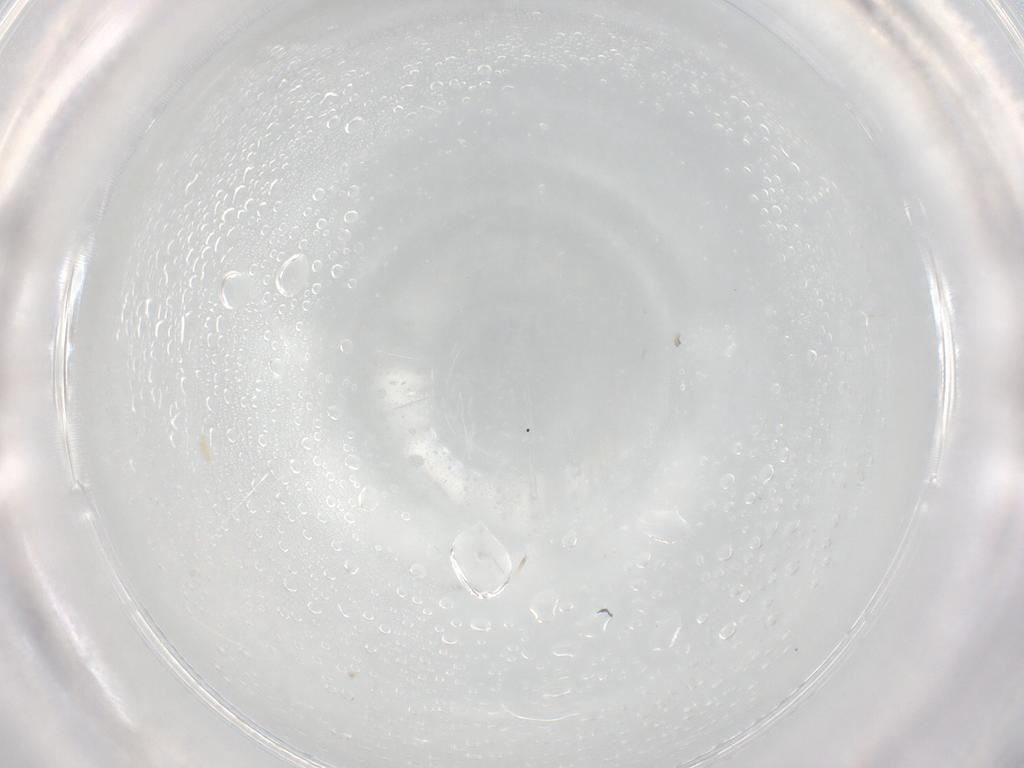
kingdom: Animalia
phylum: Arthropoda
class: Arachnida
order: Trombidiformes
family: Eupodidae
